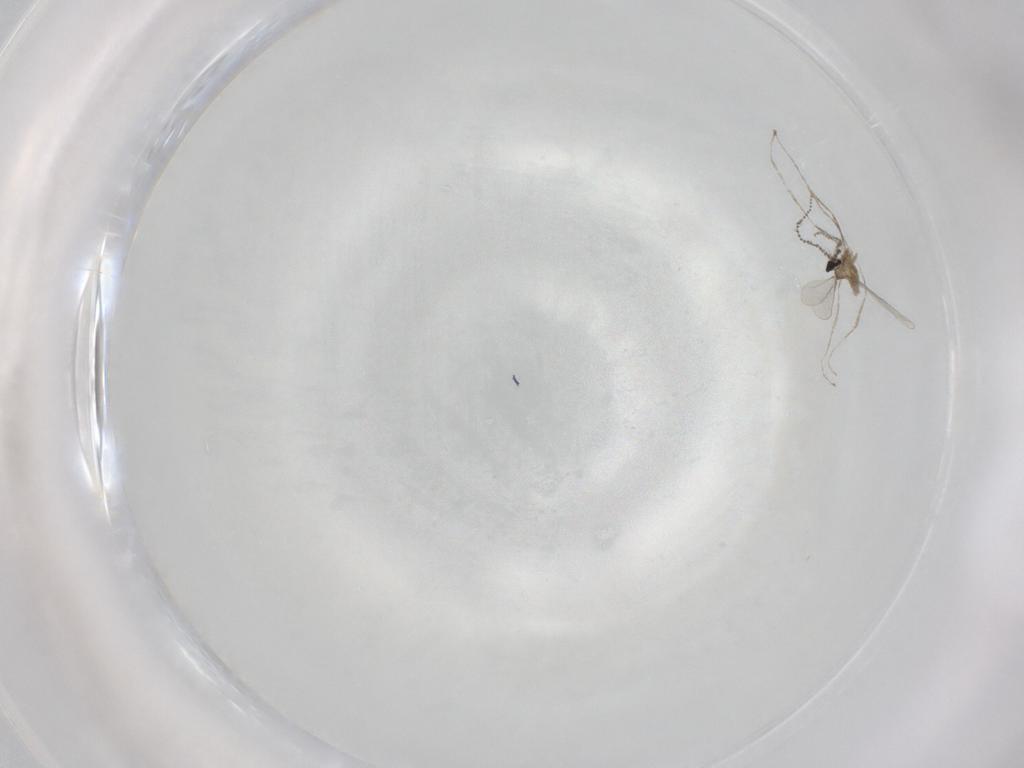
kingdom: Animalia
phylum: Arthropoda
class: Insecta
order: Diptera
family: Cecidomyiidae
